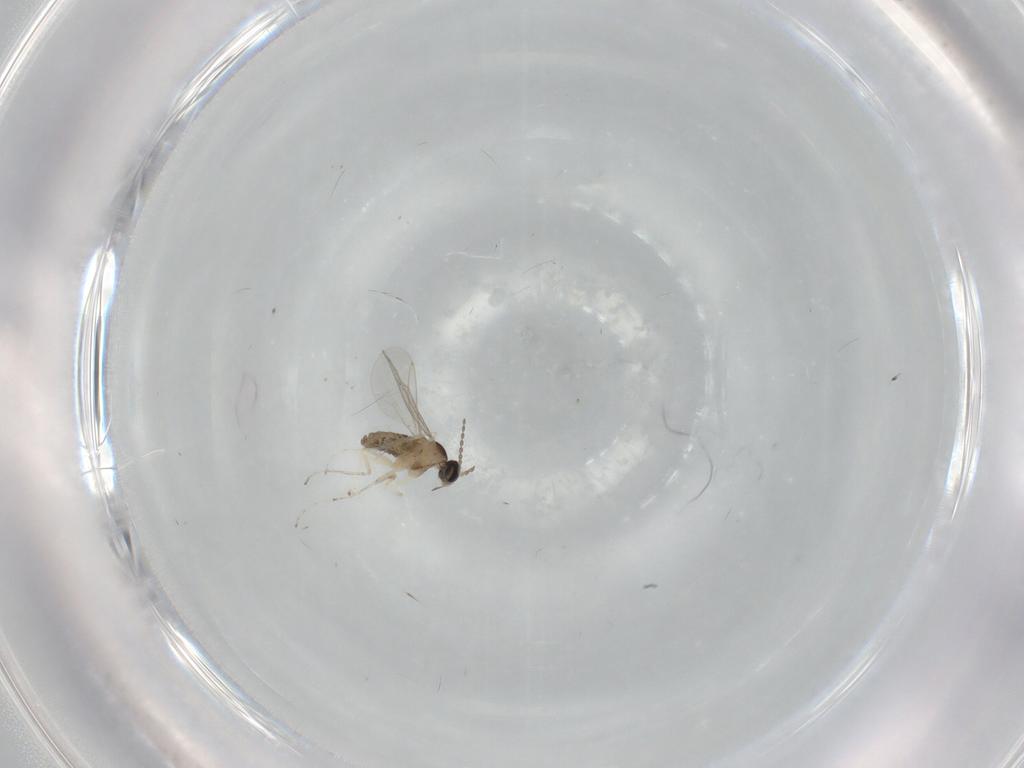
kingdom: Animalia
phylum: Arthropoda
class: Insecta
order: Diptera
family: Cecidomyiidae
